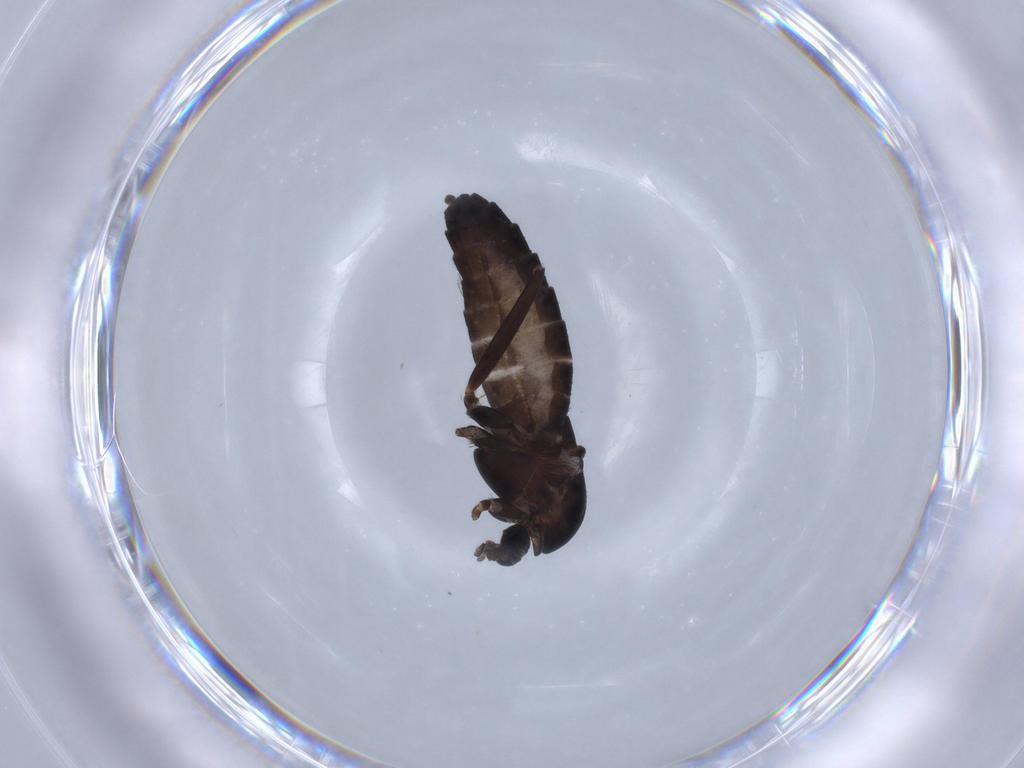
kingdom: Animalia
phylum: Arthropoda
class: Insecta
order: Diptera
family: Chironomidae
